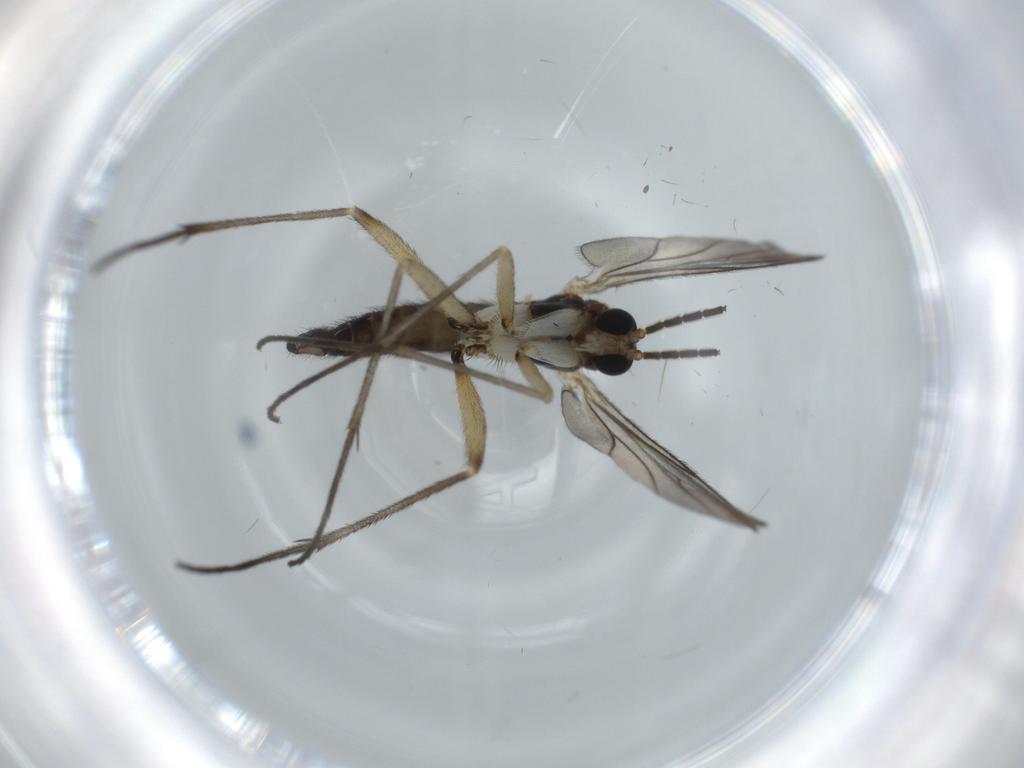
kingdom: Animalia
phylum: Arthropoda
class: Insecta
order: Diptera
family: Sciaridae
